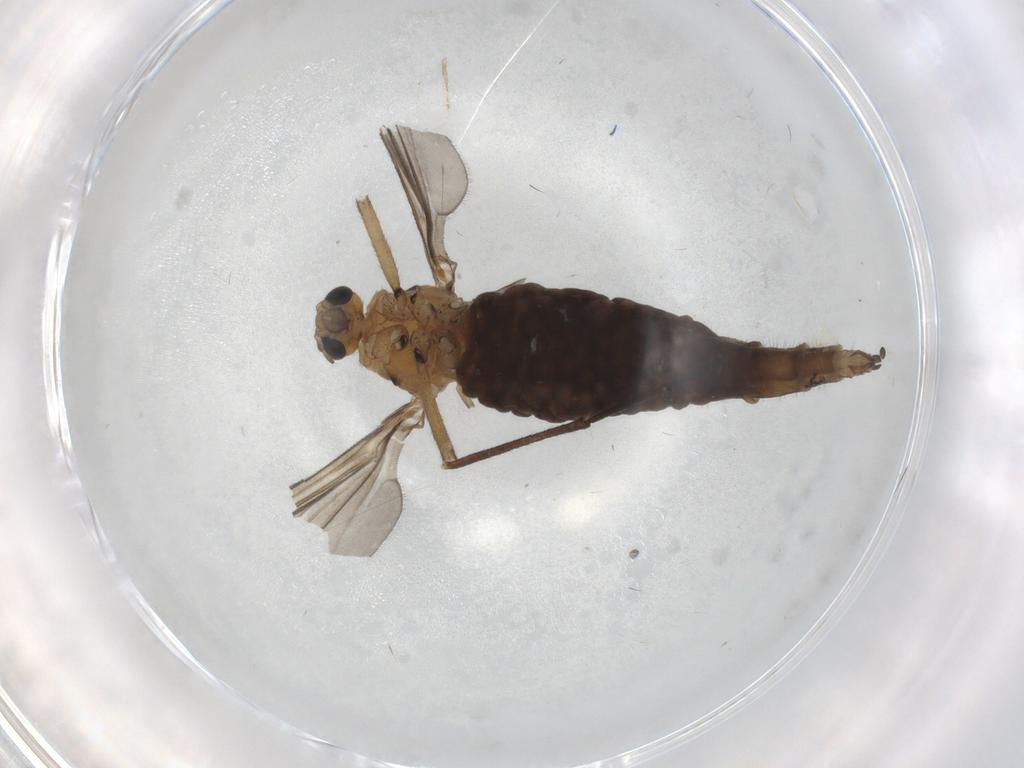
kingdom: Animalia
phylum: Arthropoda
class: Insecta
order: Diptera
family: Sciaridae
